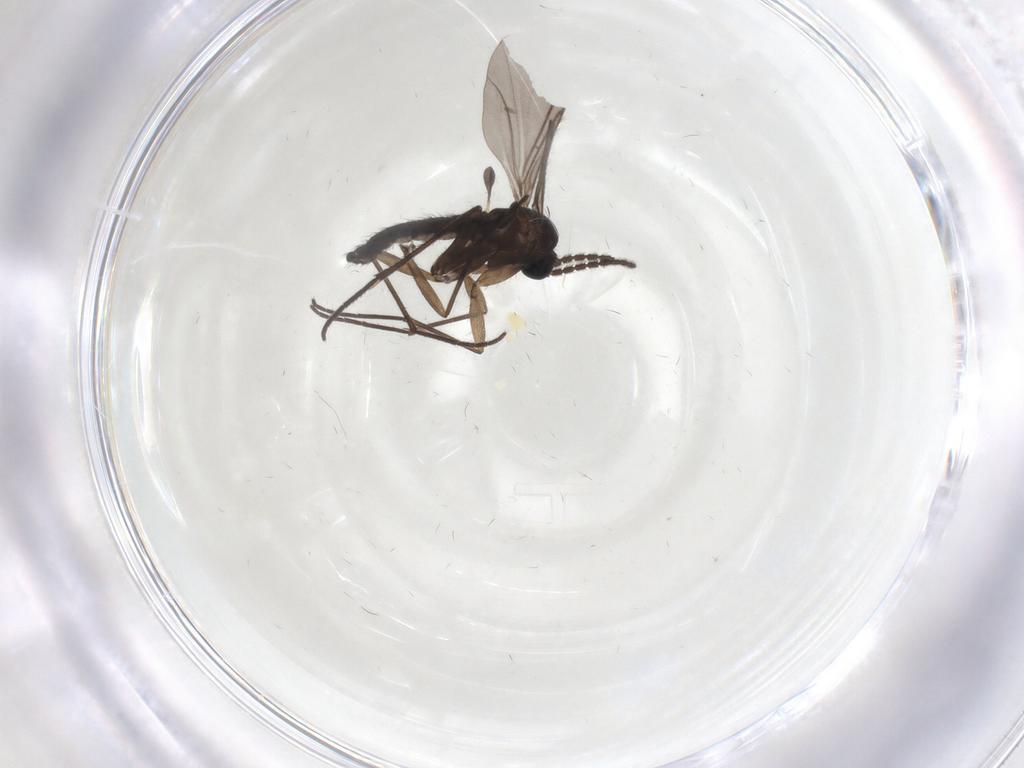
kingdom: Animalia
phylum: Arthropoda
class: Insecta
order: Diptera
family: Sciaridae
